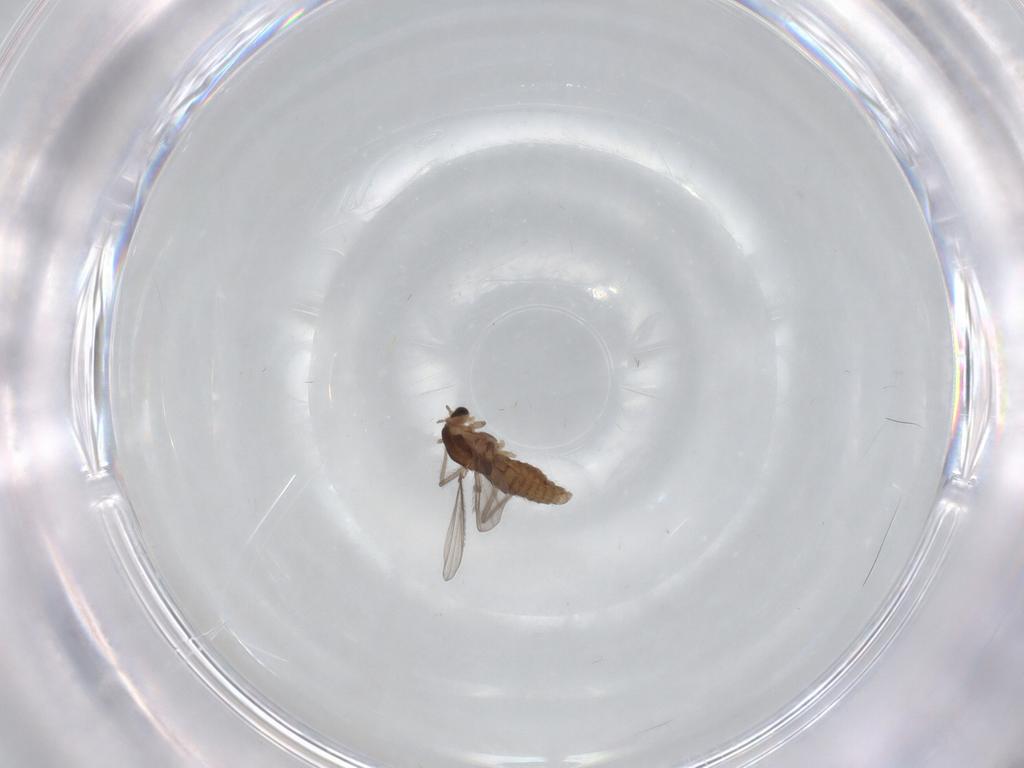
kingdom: Animalia
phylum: Arthropoda
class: Insecta
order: Diptera
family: Chironomidae
